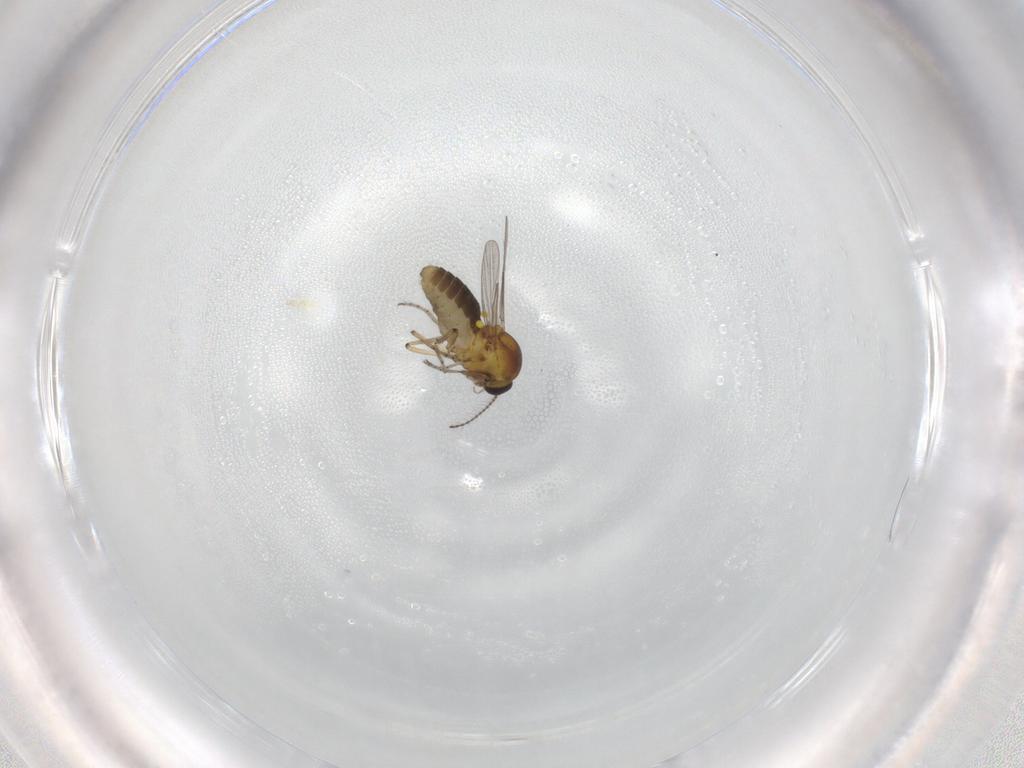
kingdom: Animalia
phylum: Arthropoda
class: Insecta
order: Diptera
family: Ceratopogonidae
